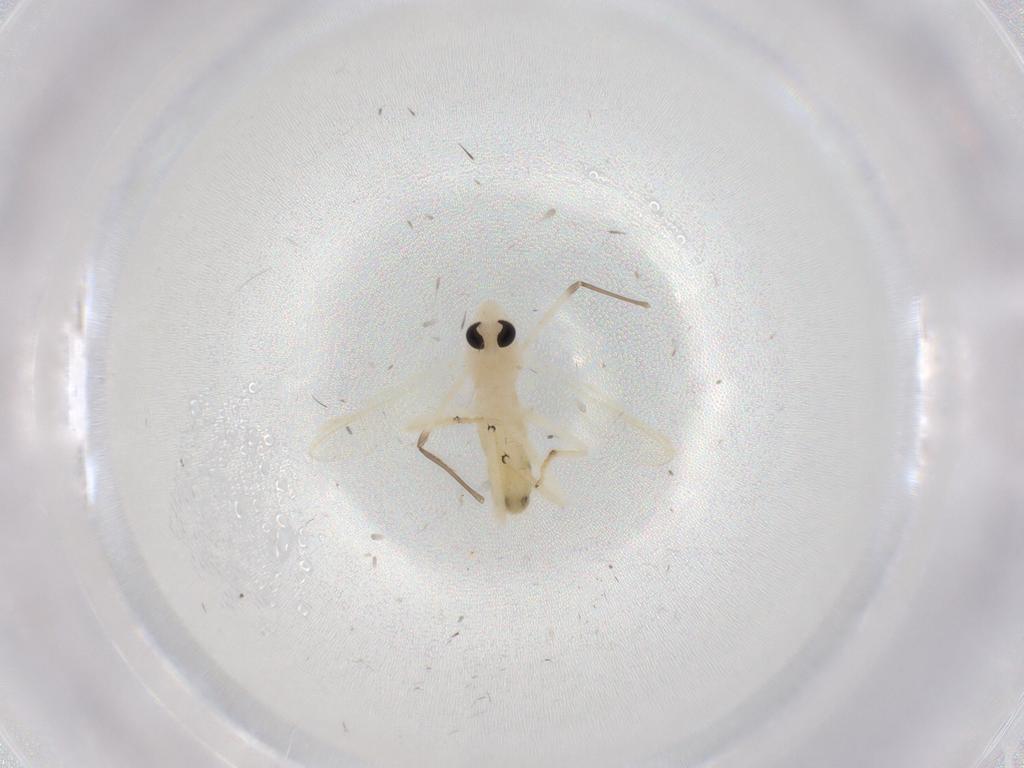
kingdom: Animalia
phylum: Arthropoda
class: Insecta
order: Diptera
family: Chironomidae
